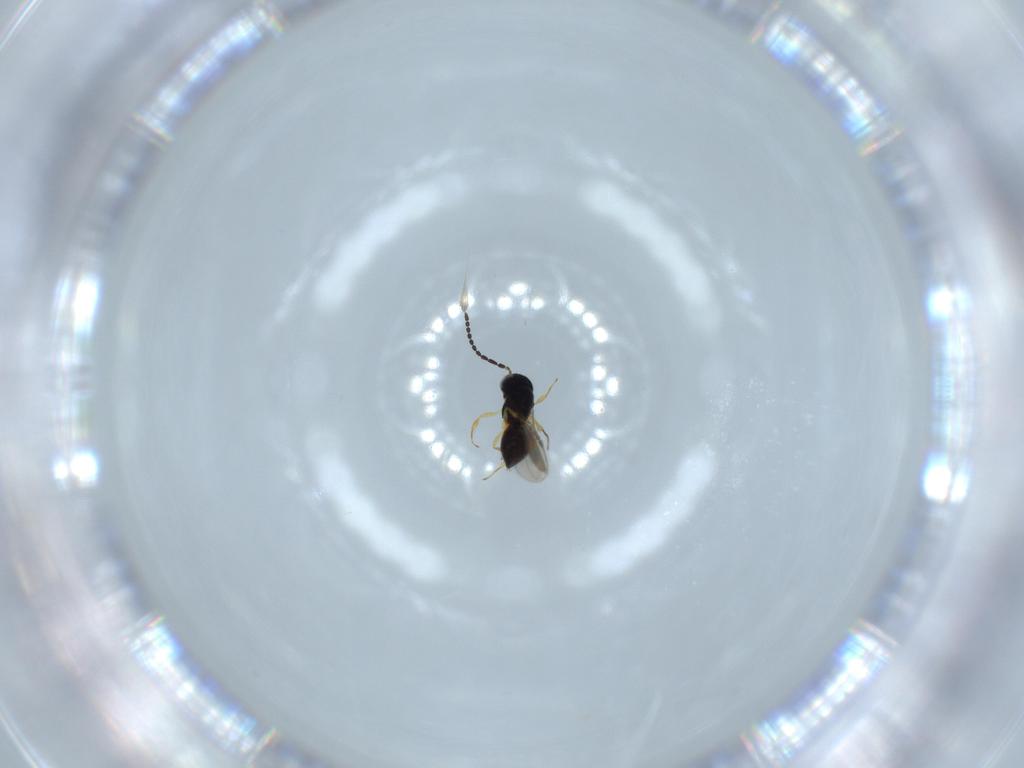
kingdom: Animalia
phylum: Arthropoda
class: Insecta
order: Hymenoptera
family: Scelionidae
